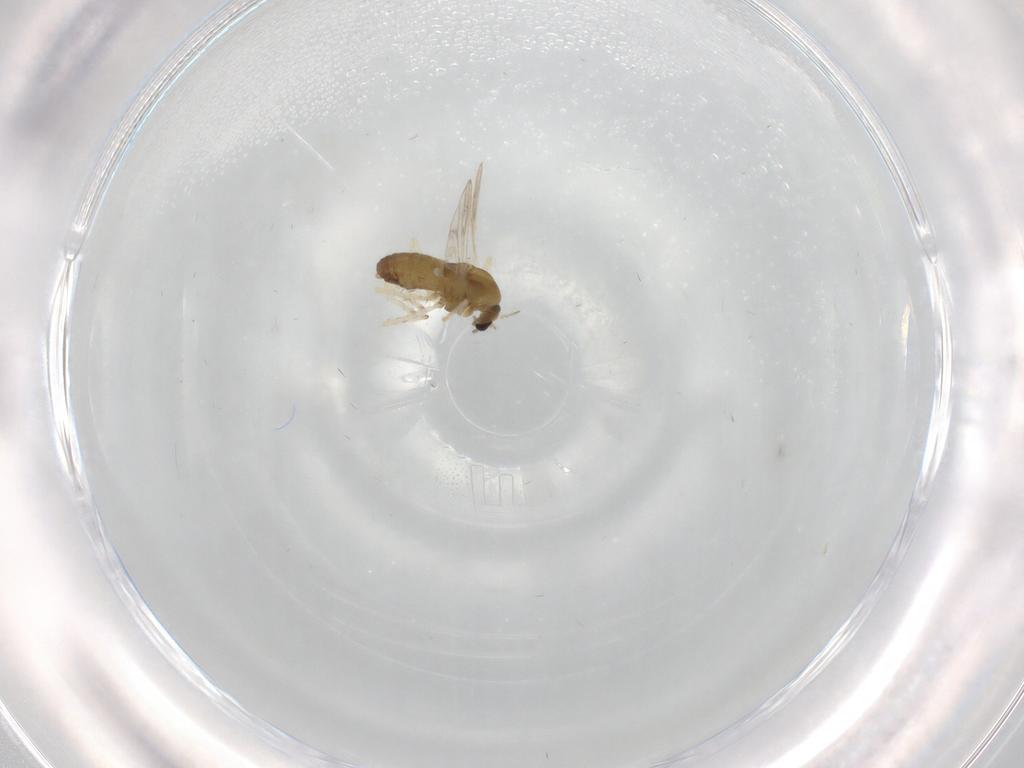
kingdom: Animalia
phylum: Arthropoda
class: Insecta
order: Diptera
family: Chironomidae
